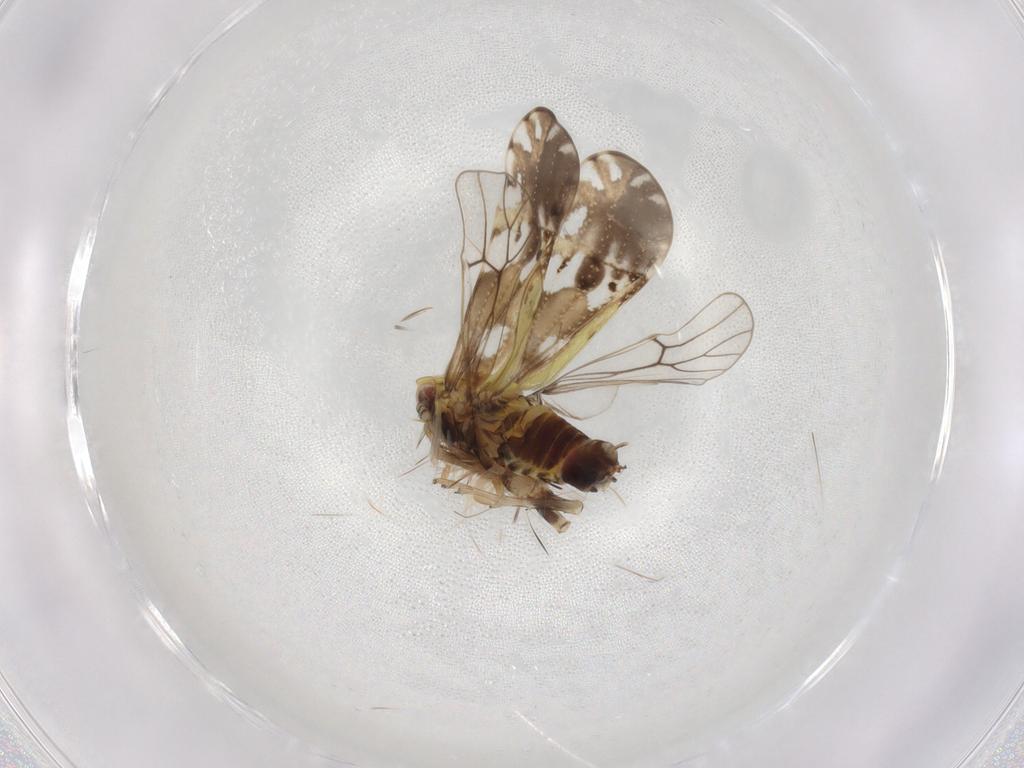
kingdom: Animalia
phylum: Arthropoda
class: Insecta
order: Hemiptera
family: Delphacidae
